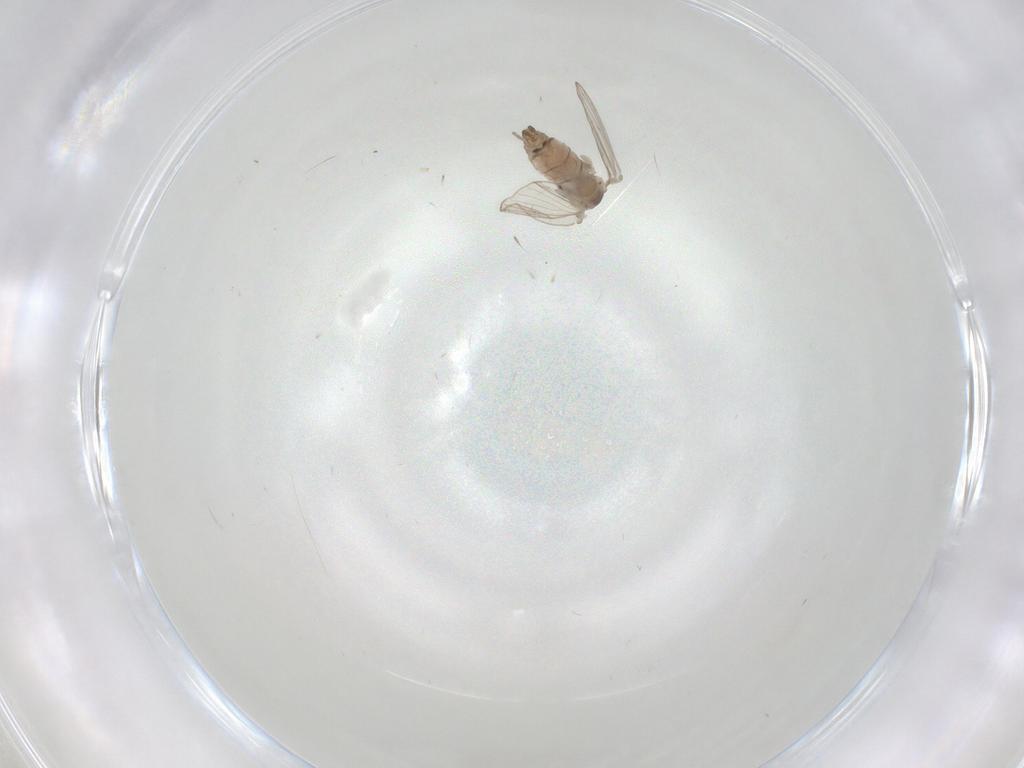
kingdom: Animalia
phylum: Arthropoda
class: Insecta
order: Diptera
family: Psychodidae
